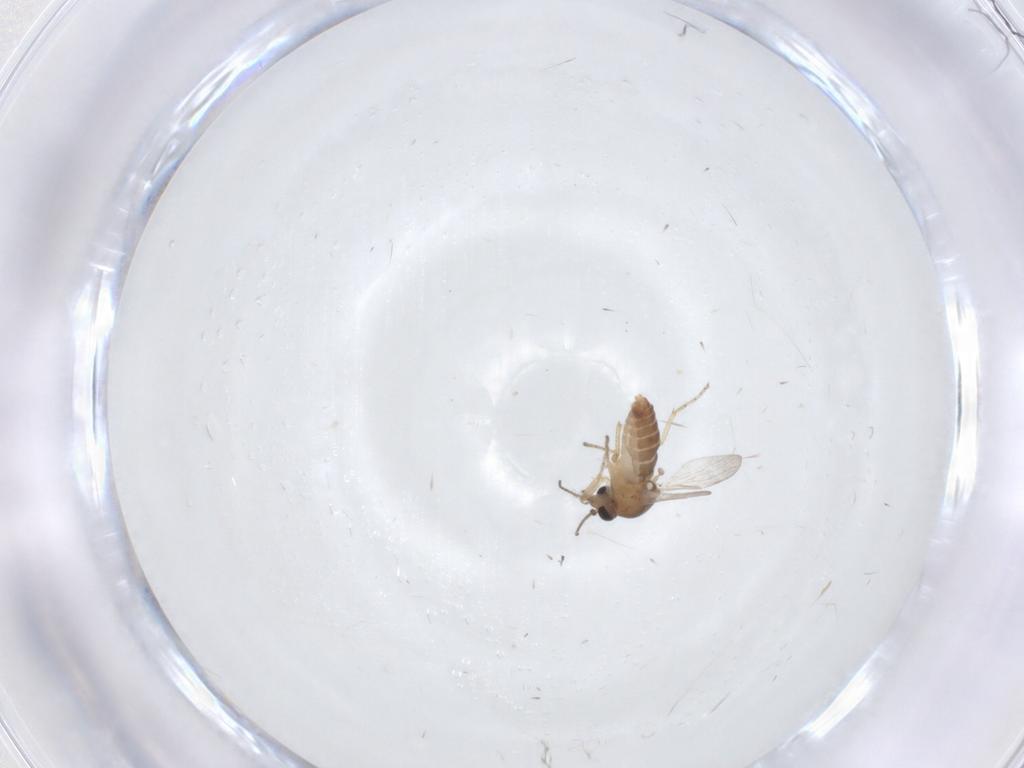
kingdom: Animalia
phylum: Arthropoda
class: Insecta
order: Diptera
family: Ceratopogonidae
